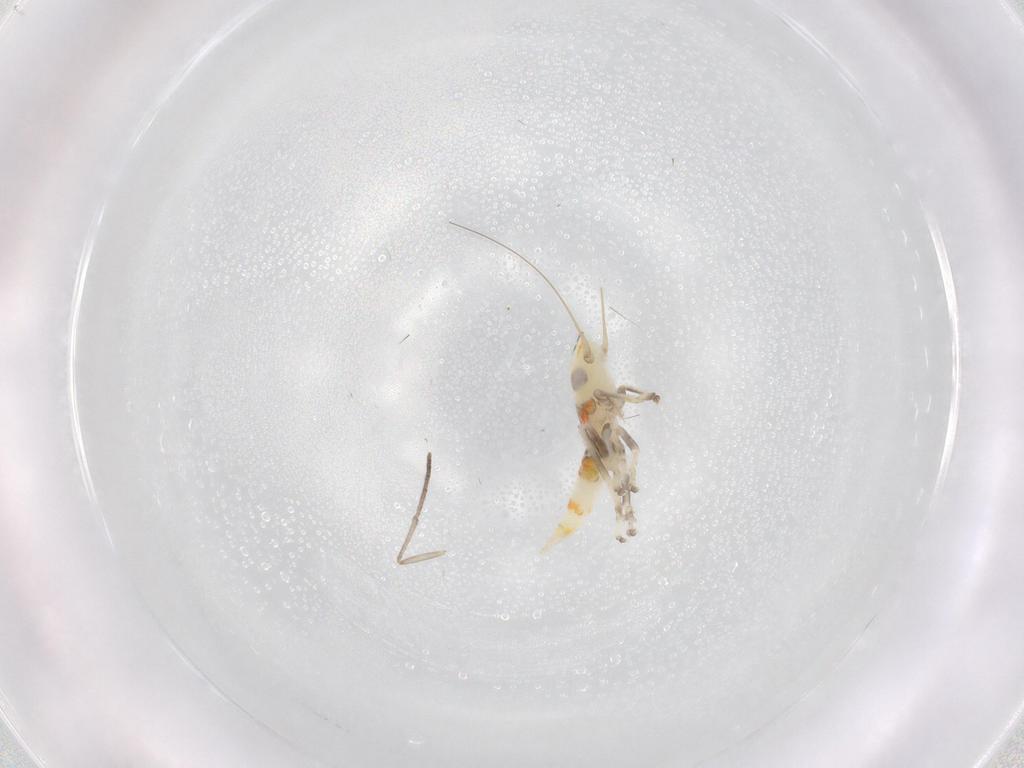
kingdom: Animalia
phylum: Arthropoda
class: Insecta
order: Hemiptera
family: Cicadellidae
